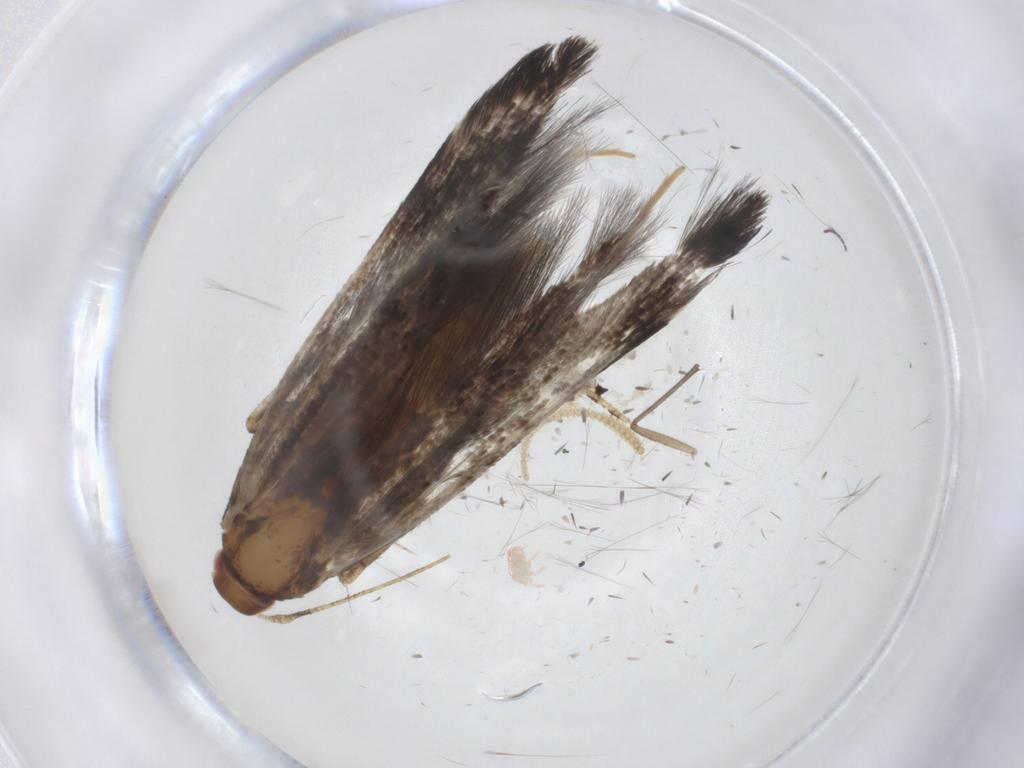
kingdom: Animalia
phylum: Arthropoda
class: Insecta
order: Lepidoptera
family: Cosmopterigidae
